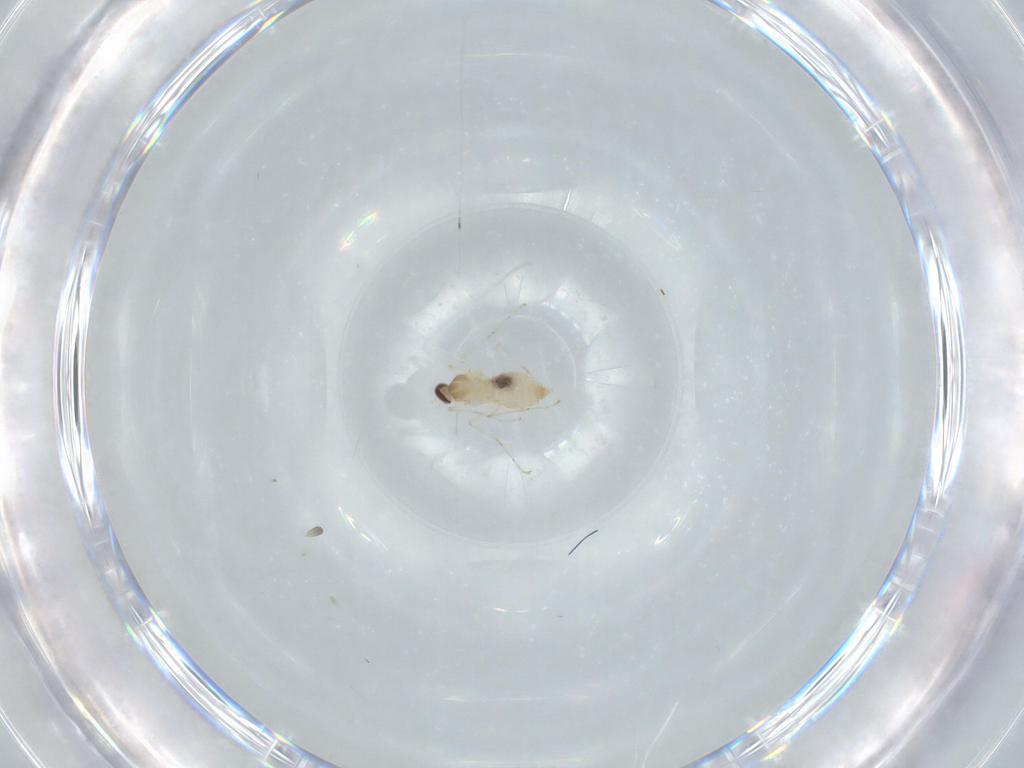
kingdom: Animalia
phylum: Arthropoda
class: Insecta
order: Diptera
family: Cecidomyiidae
